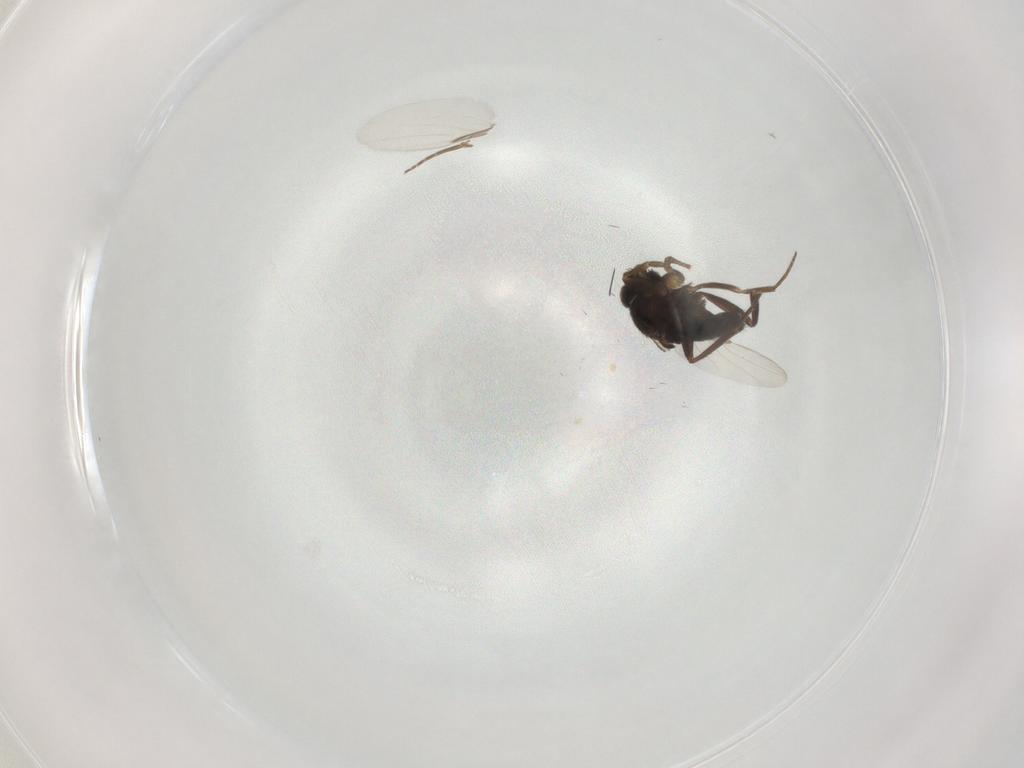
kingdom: Animalia
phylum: Arthropoda
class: Insecta
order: Diptera
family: Phoridae
